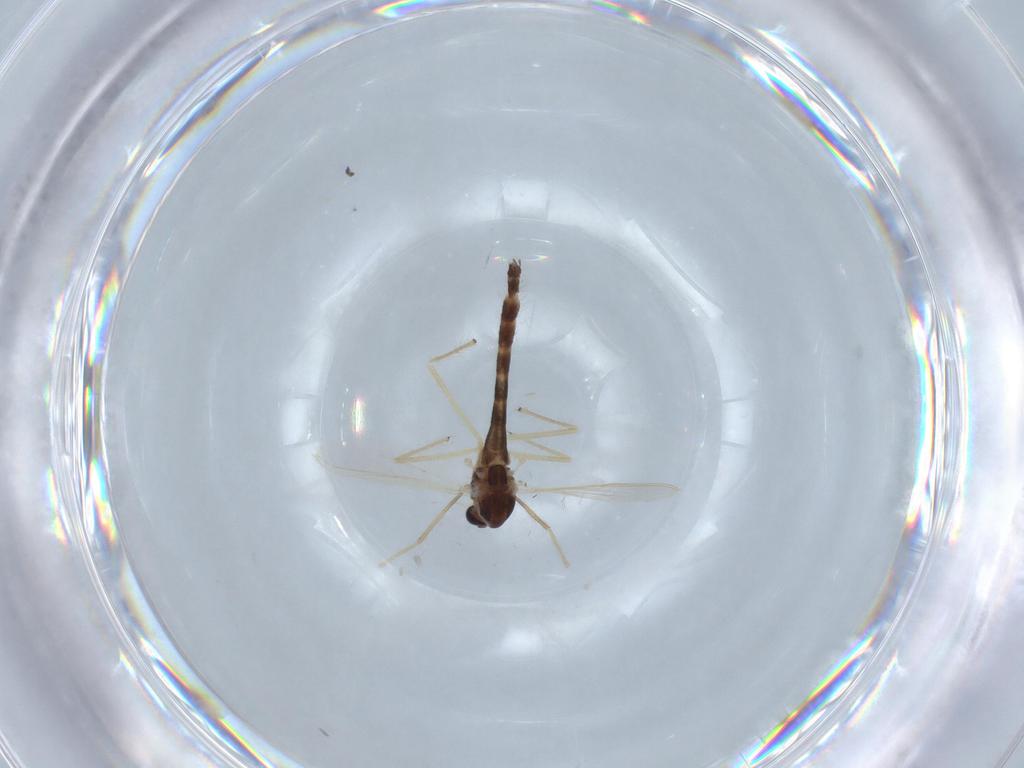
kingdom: Animalia
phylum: Arthropoda
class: Insecta
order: Diptera
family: Chironomidae
